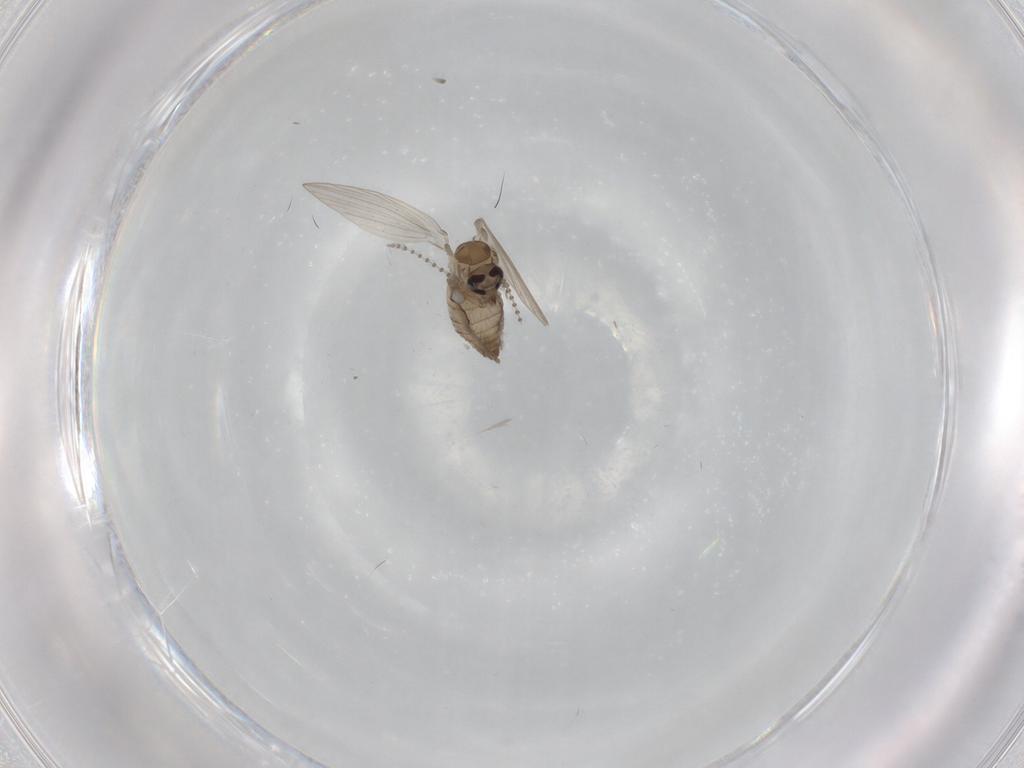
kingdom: Animalia
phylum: Arthropoda
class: Insecta
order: Diptera
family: Psychodidae
